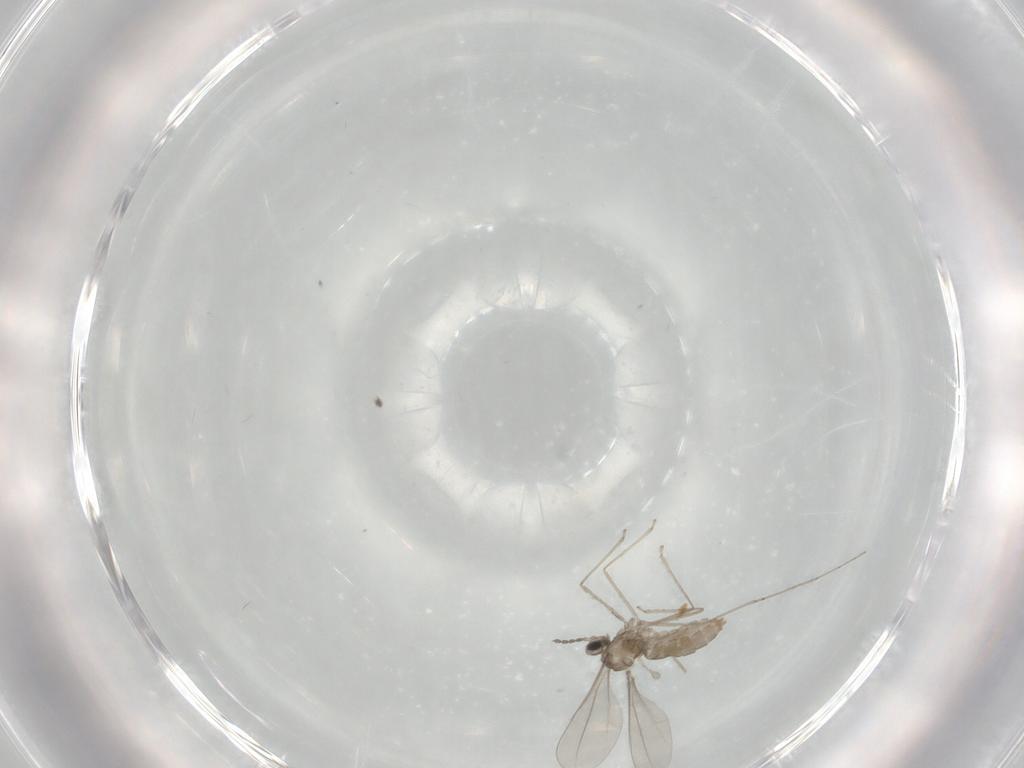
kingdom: Animalia
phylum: Arthropoda
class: Insecta
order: Diptera
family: Chironomidae
